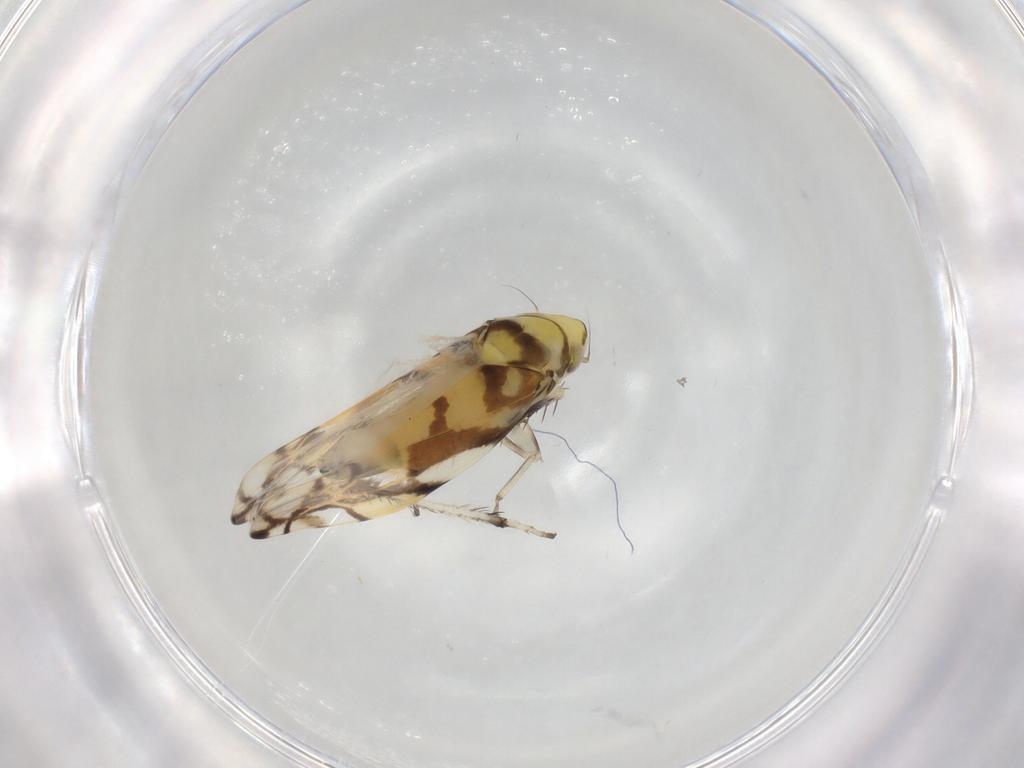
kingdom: Animalia
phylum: Arthropoda
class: Insecta
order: Hemiptera
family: Cicadellidae
